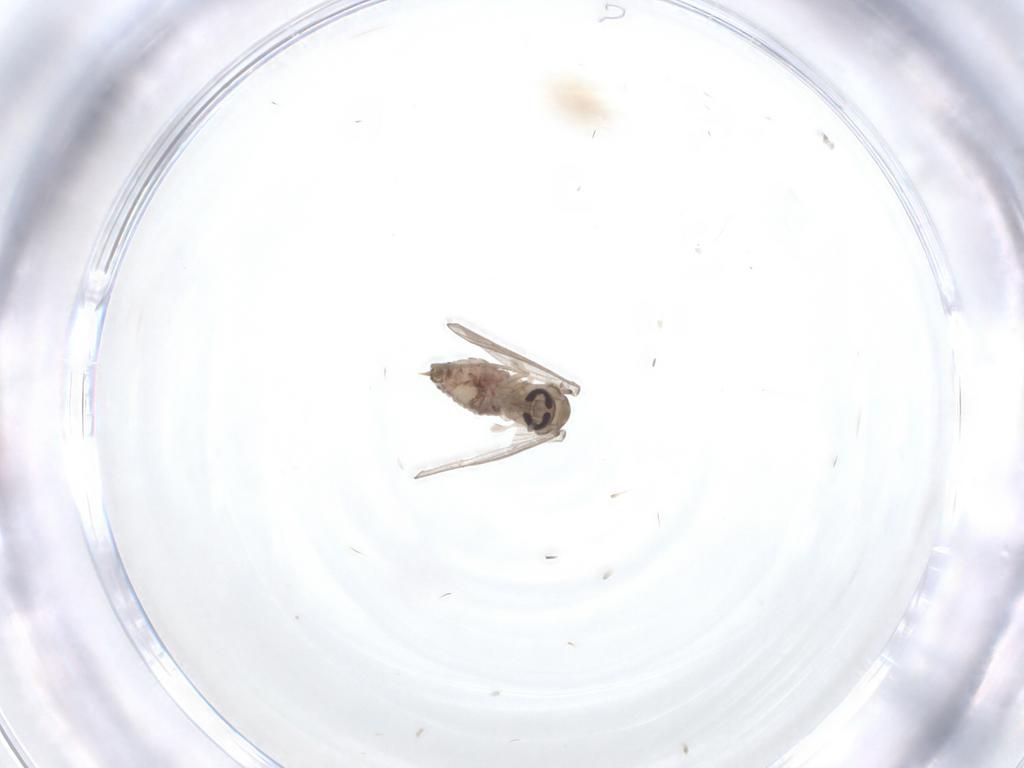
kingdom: Animalia
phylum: Arthropoda
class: Insecta
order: Diptera
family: Psychodidae
